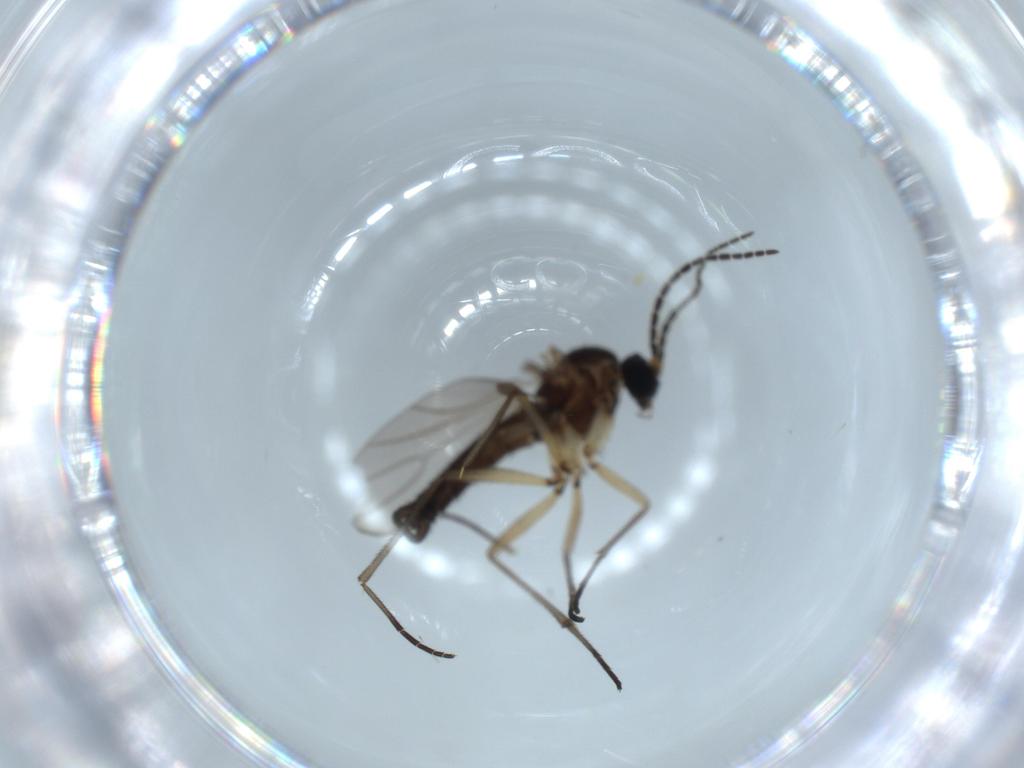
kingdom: Animalia
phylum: Arthropoda
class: Insecta
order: Diptera
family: Sciaridae
